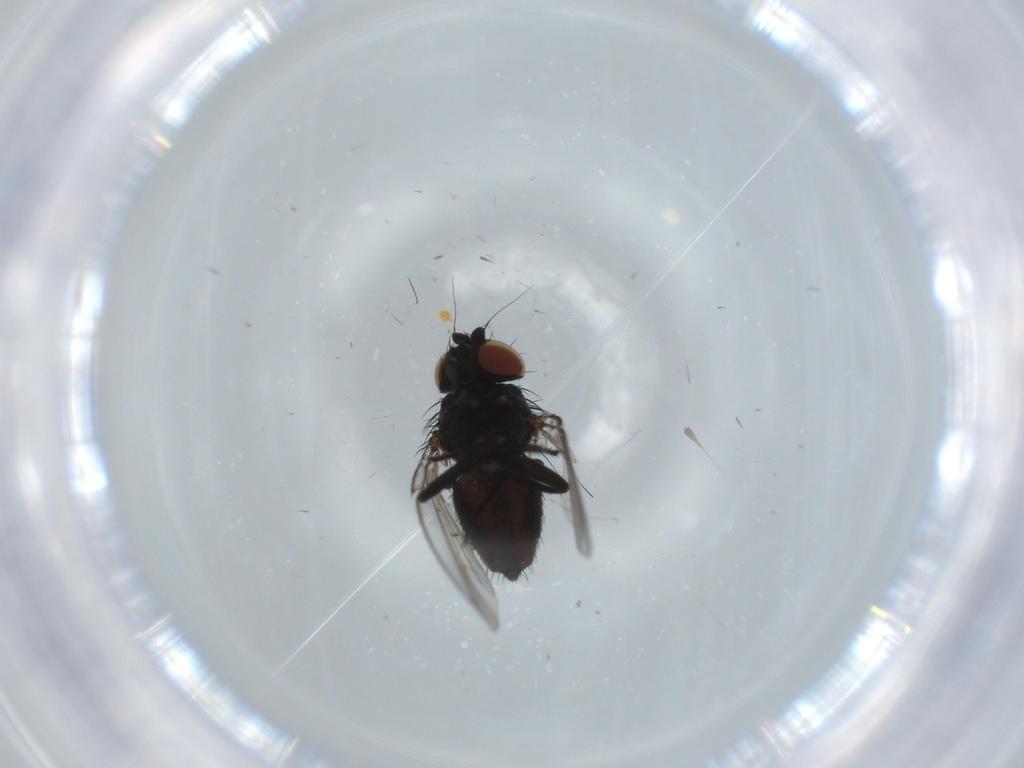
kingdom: Animalia
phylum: Arthropoda
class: Insecta
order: Diptera
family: Milichiidae
